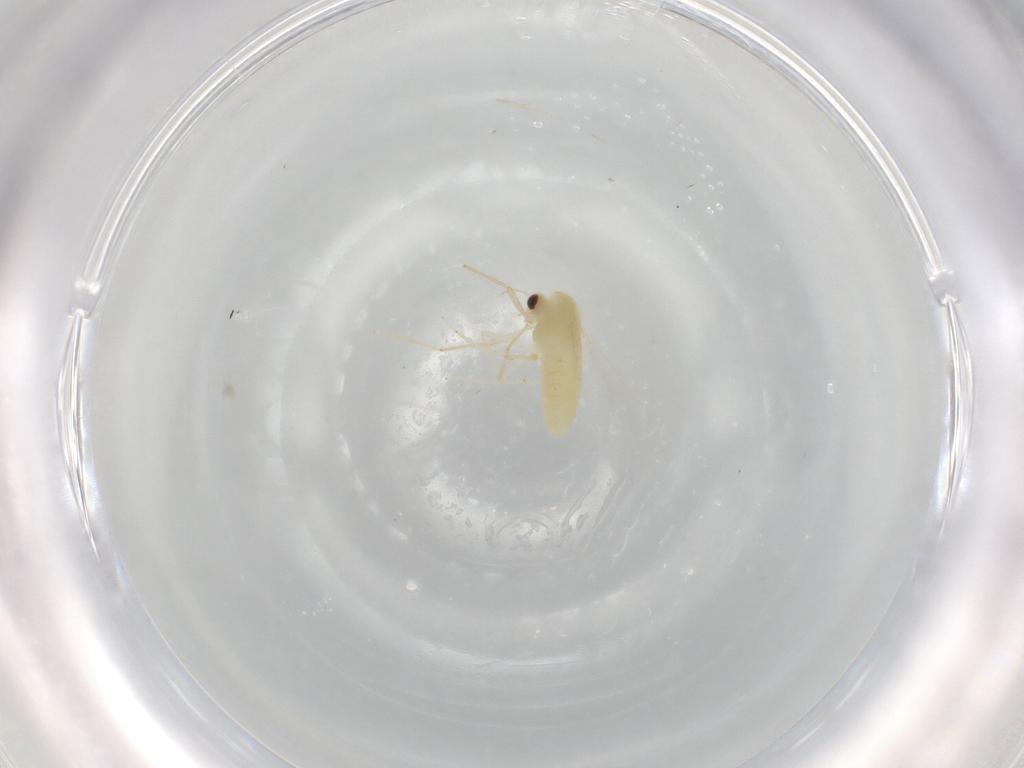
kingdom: Animalia
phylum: Arthropoda
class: Insecta
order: Diptera
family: Chironomidae
